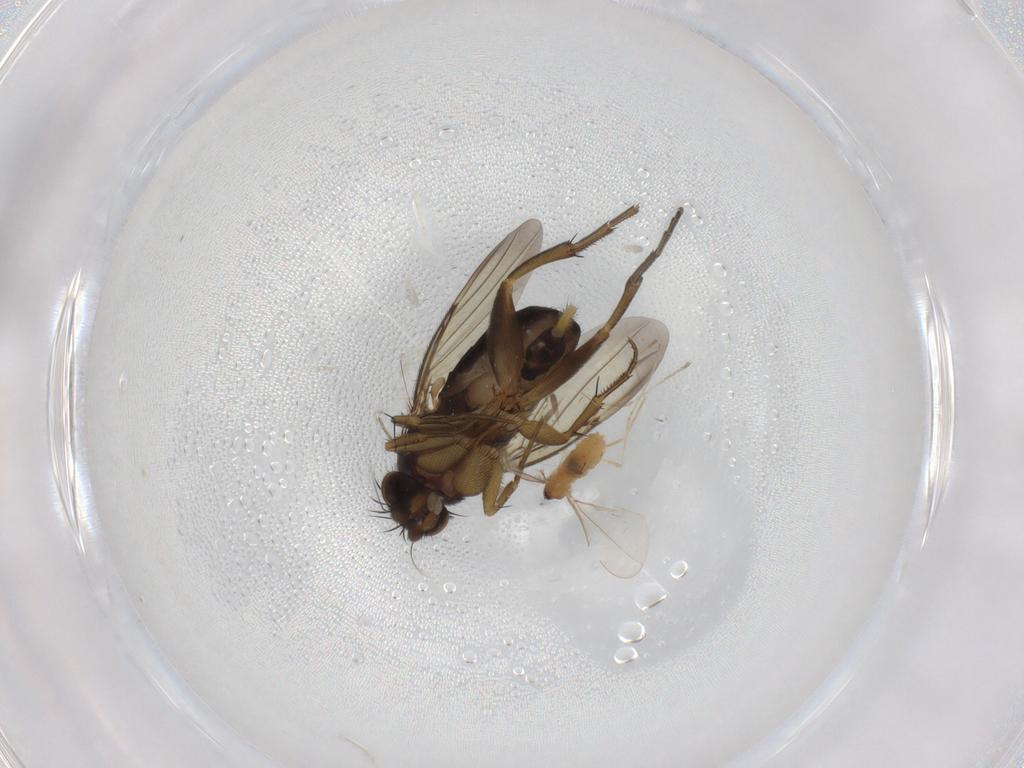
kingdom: Animalia
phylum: Arthropoda
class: Insecta
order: Diptera
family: Cecidomyiidae
